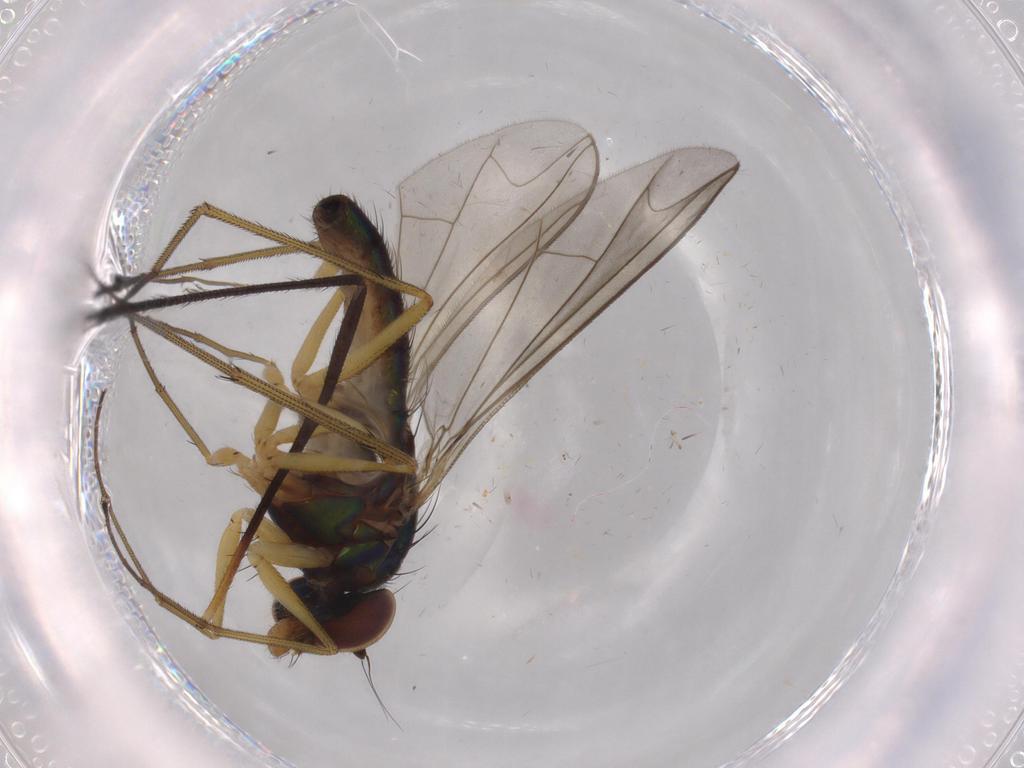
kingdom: Animalia
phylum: Arthropoda
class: Insecta
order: Diptera
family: Dolichopodidae
